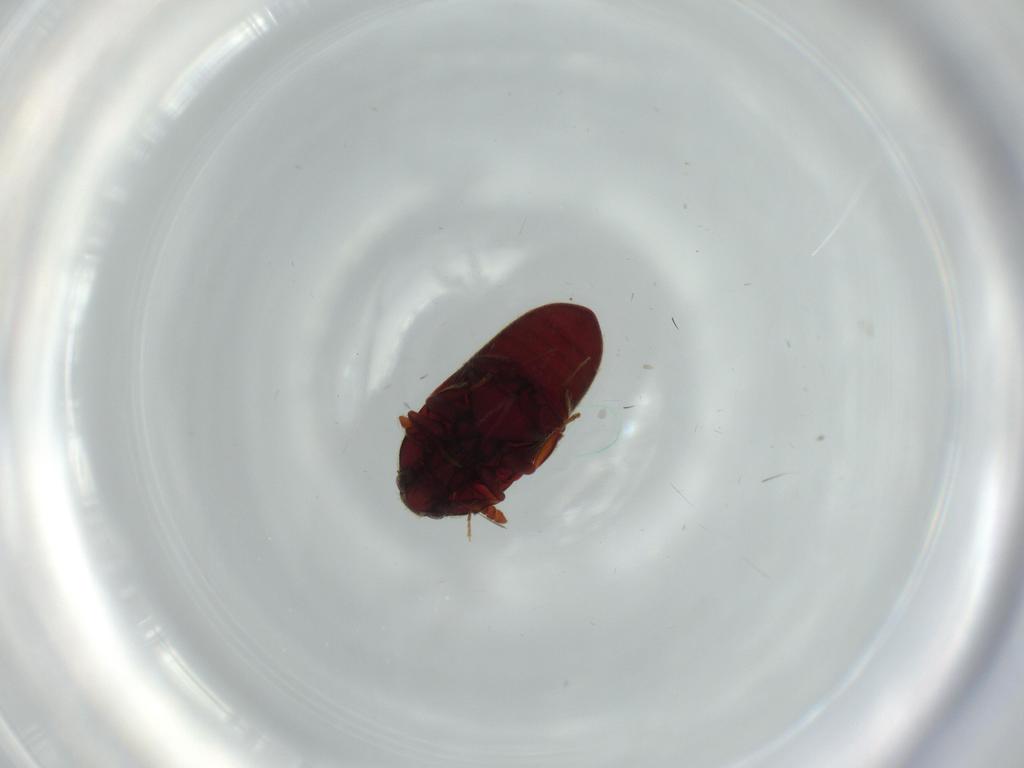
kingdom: Animalia
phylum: Arthropoda
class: Insecta
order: Coleoptera
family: Throscidae
